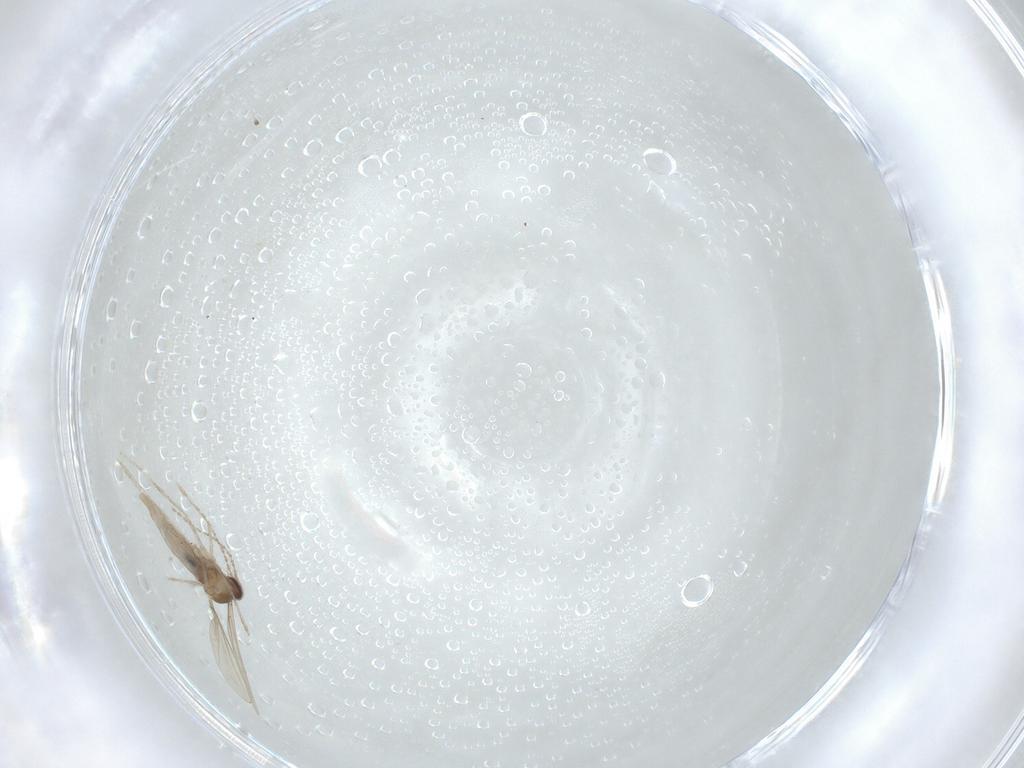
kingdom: Animalia
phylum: Arthropoda
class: Insecta
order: Diptera
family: Cecidomyiidae
